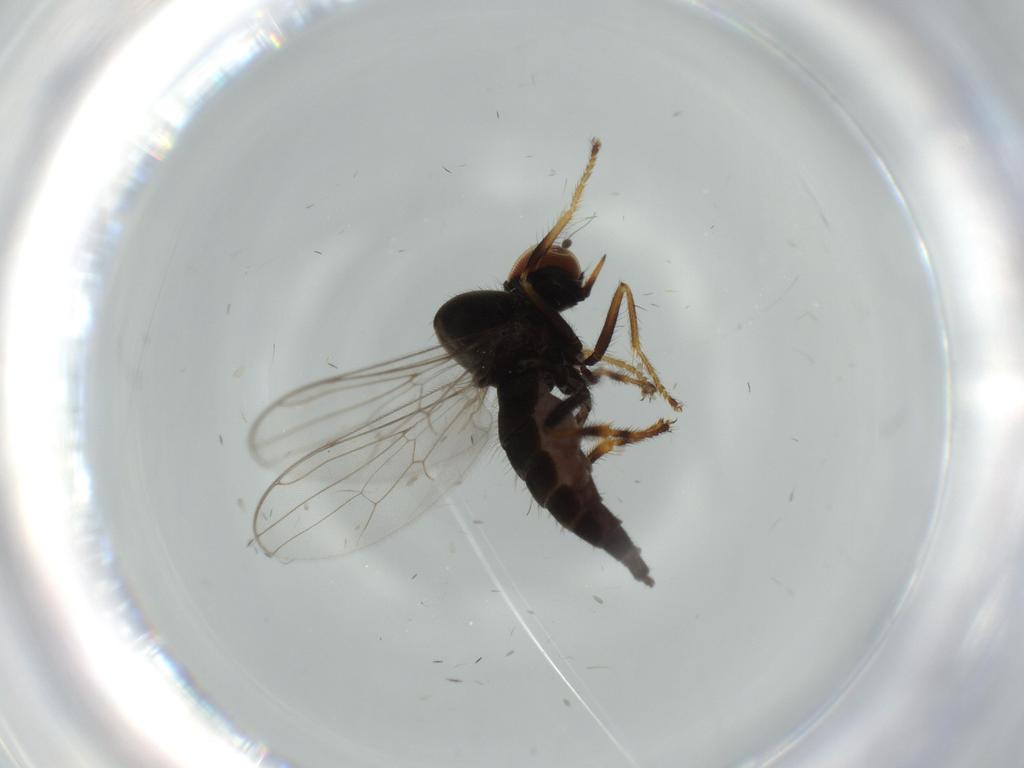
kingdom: Animalia
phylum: Arthropoda
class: Insecta
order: Diptera
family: Hybotidae
